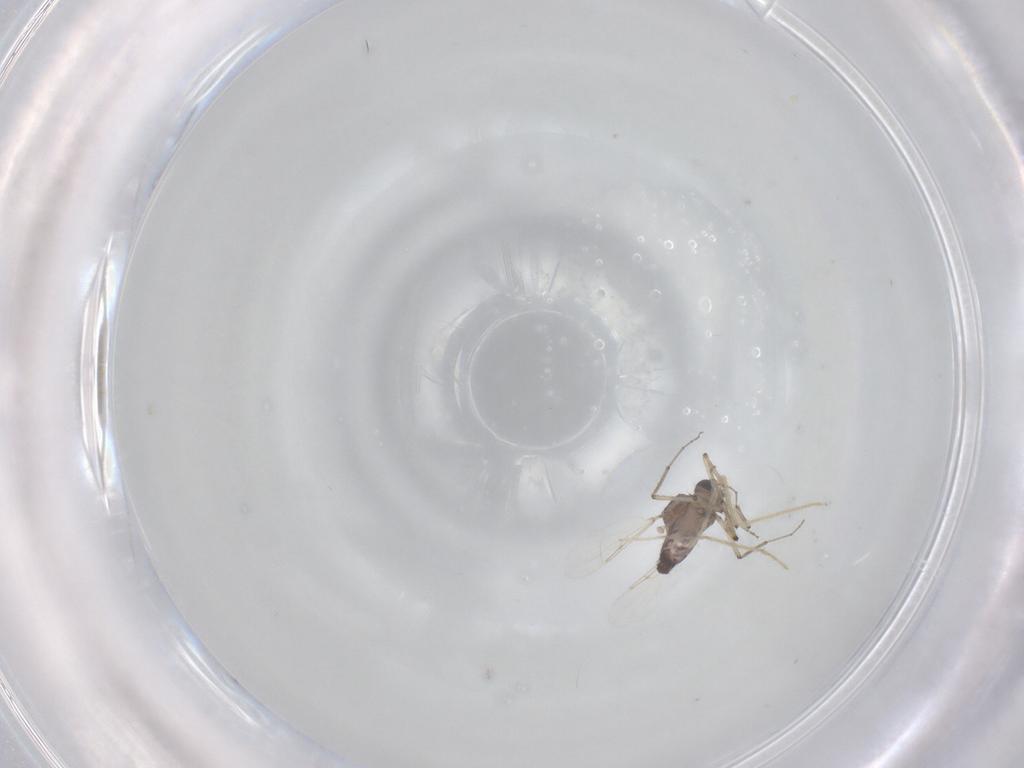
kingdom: Animalia
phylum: Arthropoda
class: Insecta
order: Diptera
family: Ceratopogonidae
